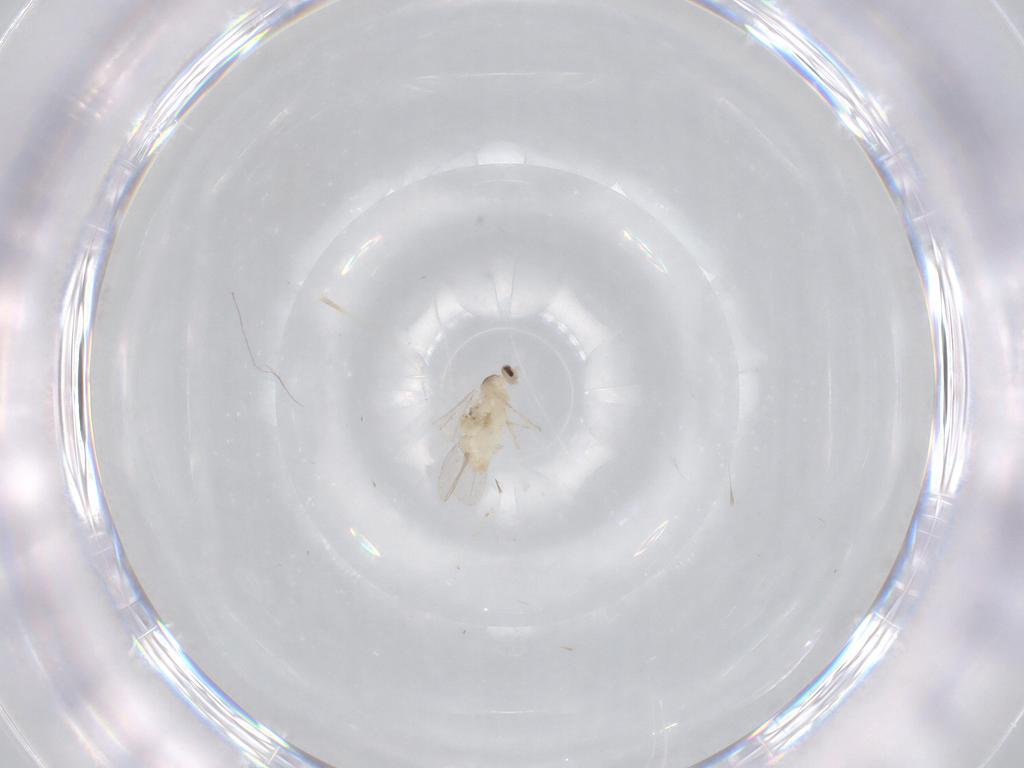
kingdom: Animalia
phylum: Arthropoda
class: Insecta
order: Diptera
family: Cecidomyiidae
